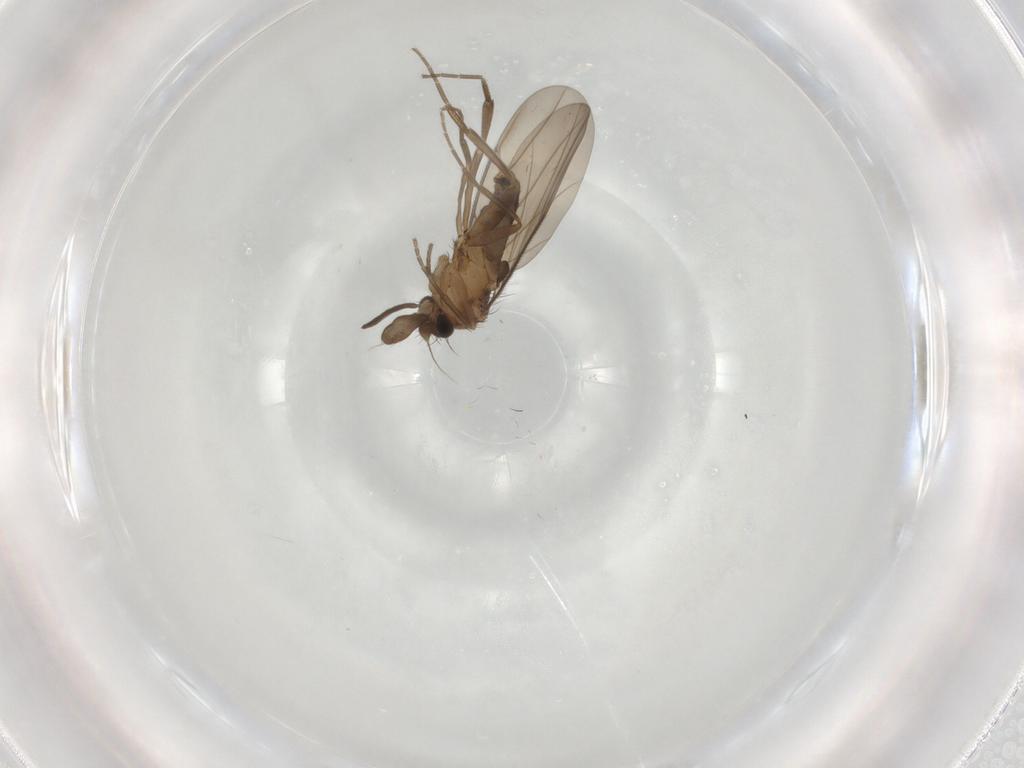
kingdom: Animalia
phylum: Arthropoda
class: Insecta
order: Diptera
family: Phoridae
